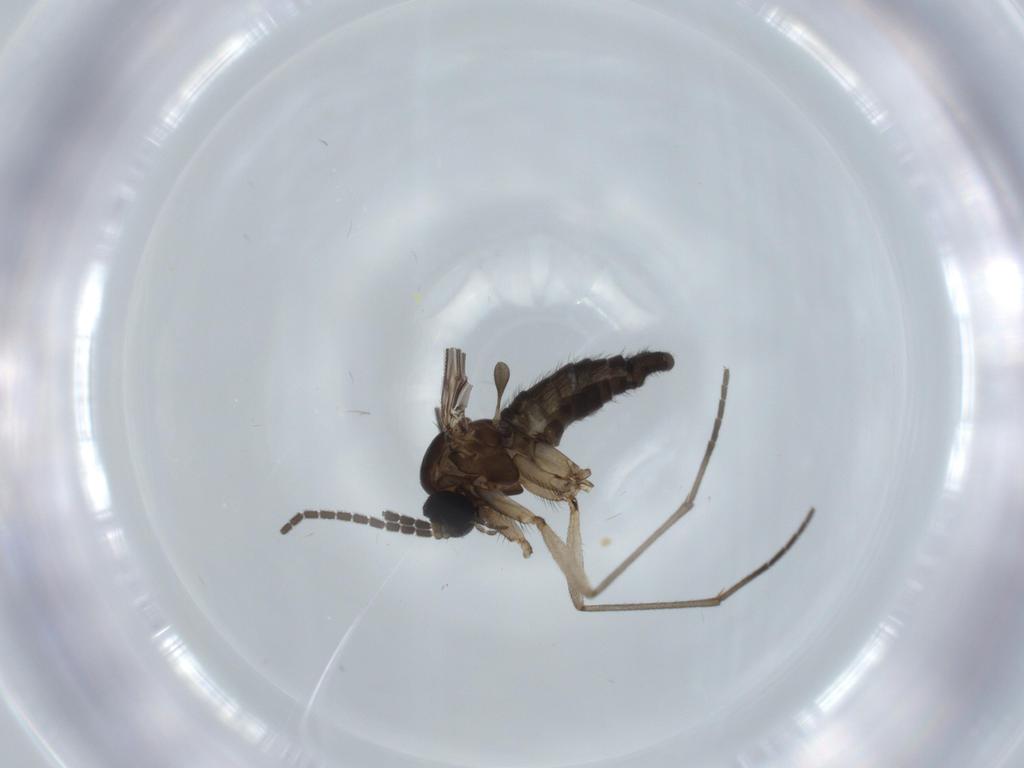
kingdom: Animalia
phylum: Arthropoda
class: Insecta
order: Diptera
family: Sciaridae
